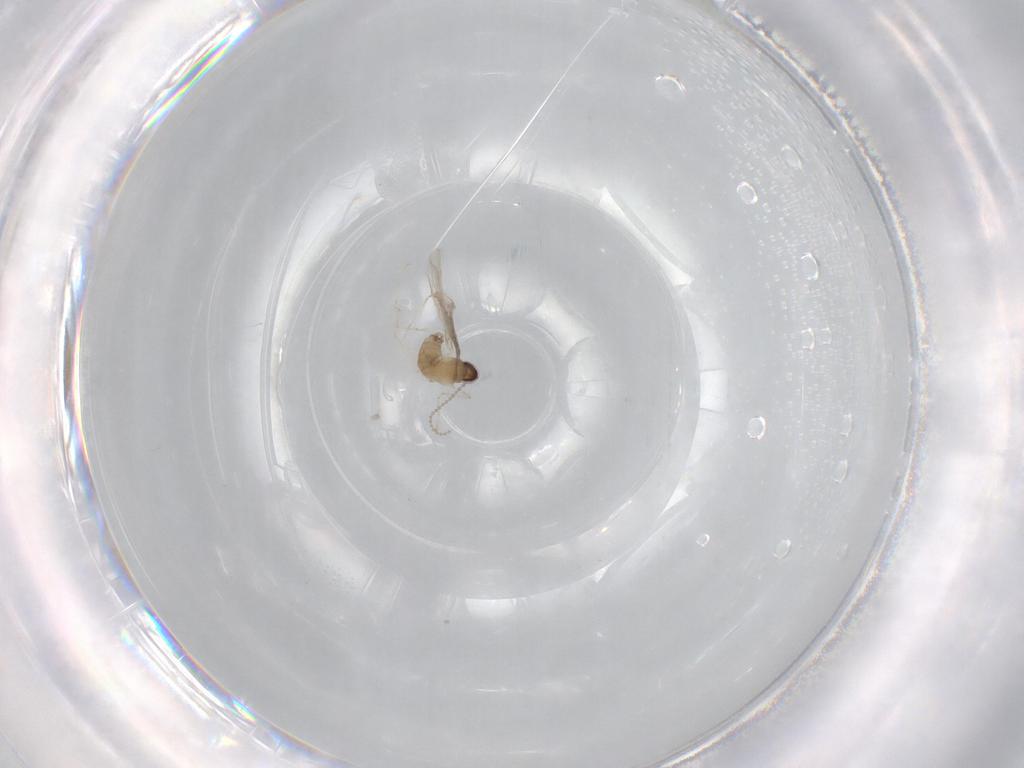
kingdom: Animalia
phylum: Arthropoda
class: Insecta
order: Diptera
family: Cecidomyiidae
